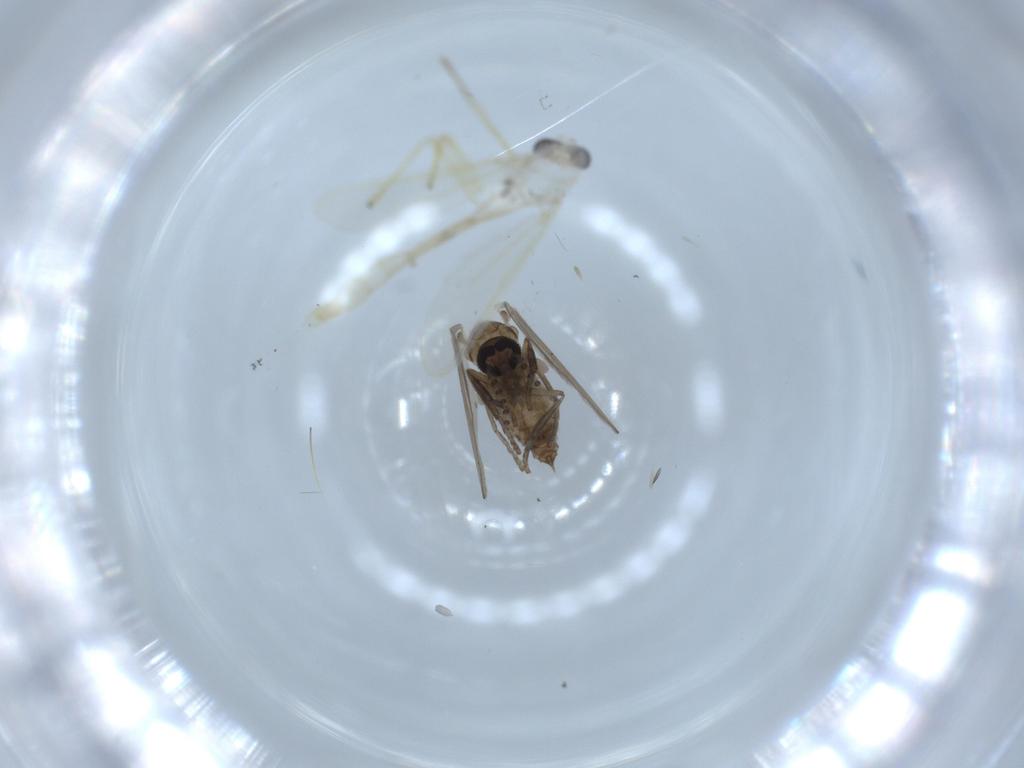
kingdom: Animalia
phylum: Arthropoda
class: Insecta
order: Diptera
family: Psychodidae
